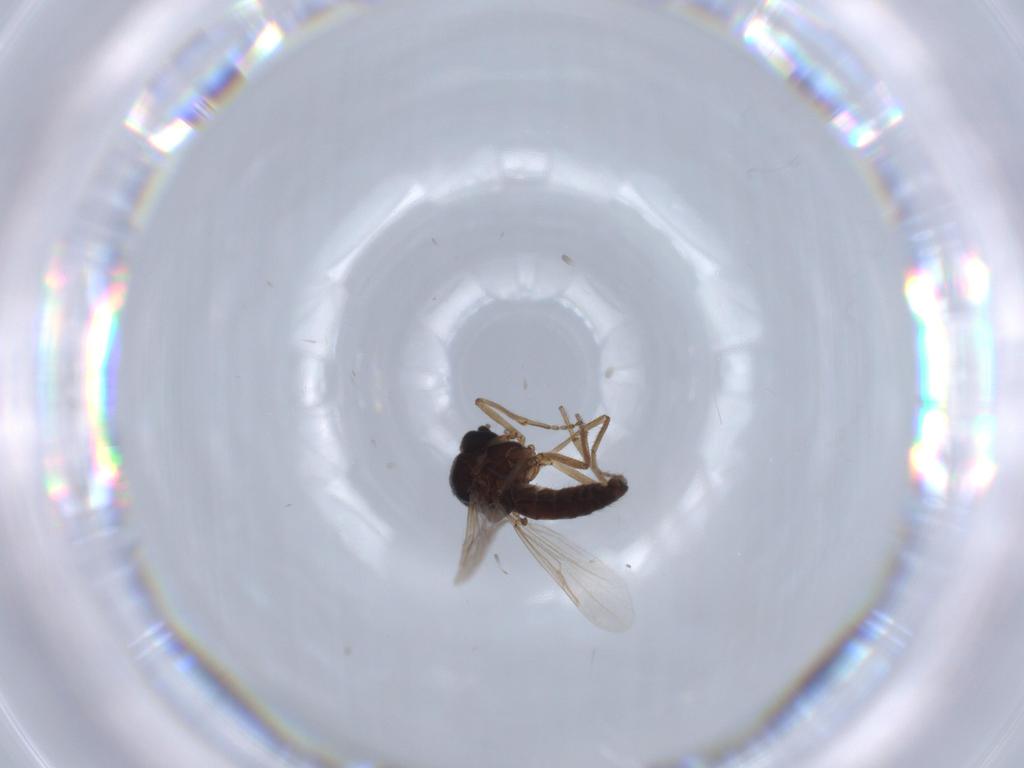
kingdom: Animalia
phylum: Arthropoda
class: Insecta
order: Diptera
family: Ceratopogonidae
